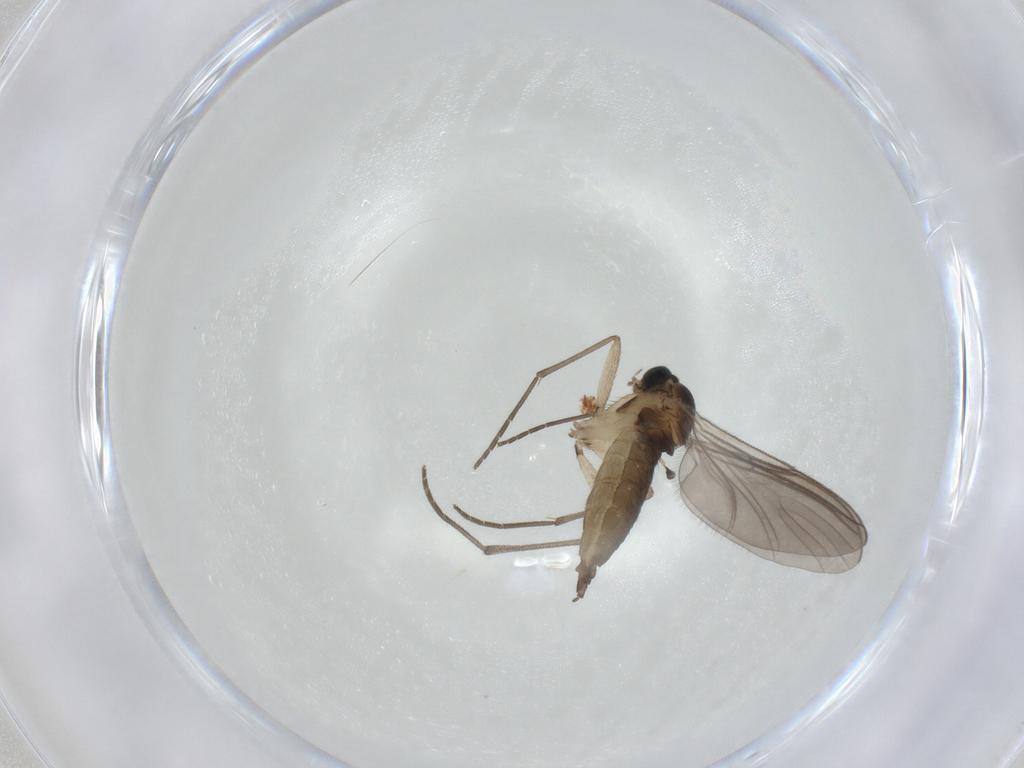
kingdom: Animalia
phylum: Arthropoda
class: Insecta
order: Diptera
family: Sciaridae
